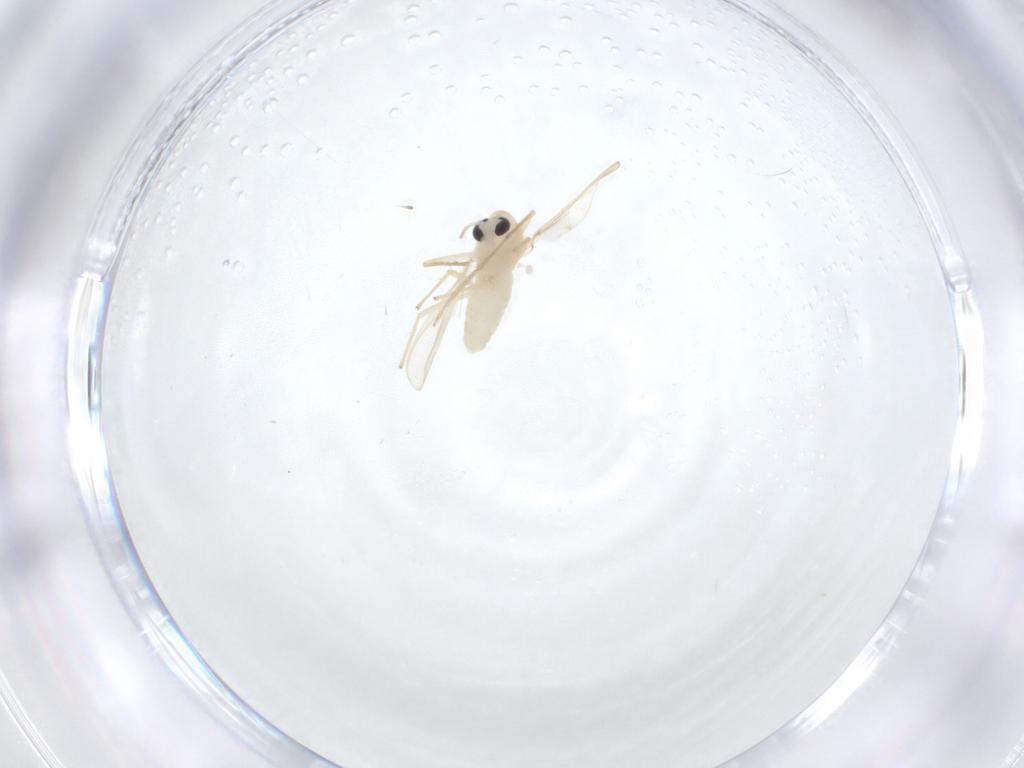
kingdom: Animalia
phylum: Arthropoda
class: Insecta
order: Diptera
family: Chironomidae
